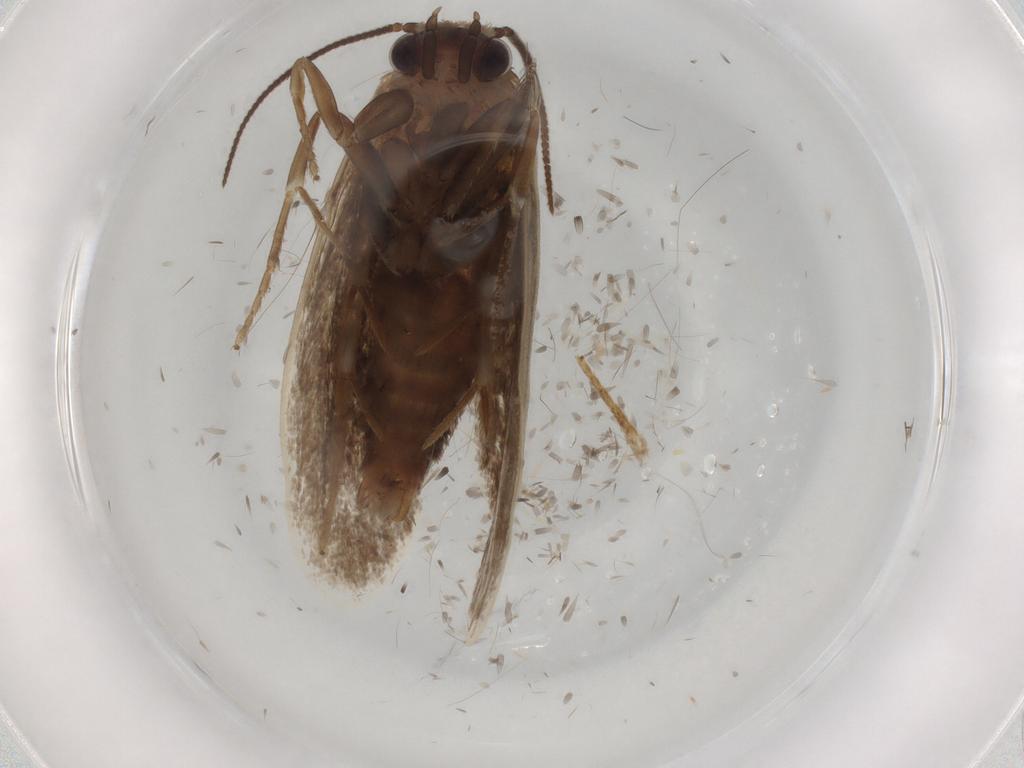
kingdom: Animalia
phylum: Arthropoda
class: Insecta
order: Lepidoptera
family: Tineidae
